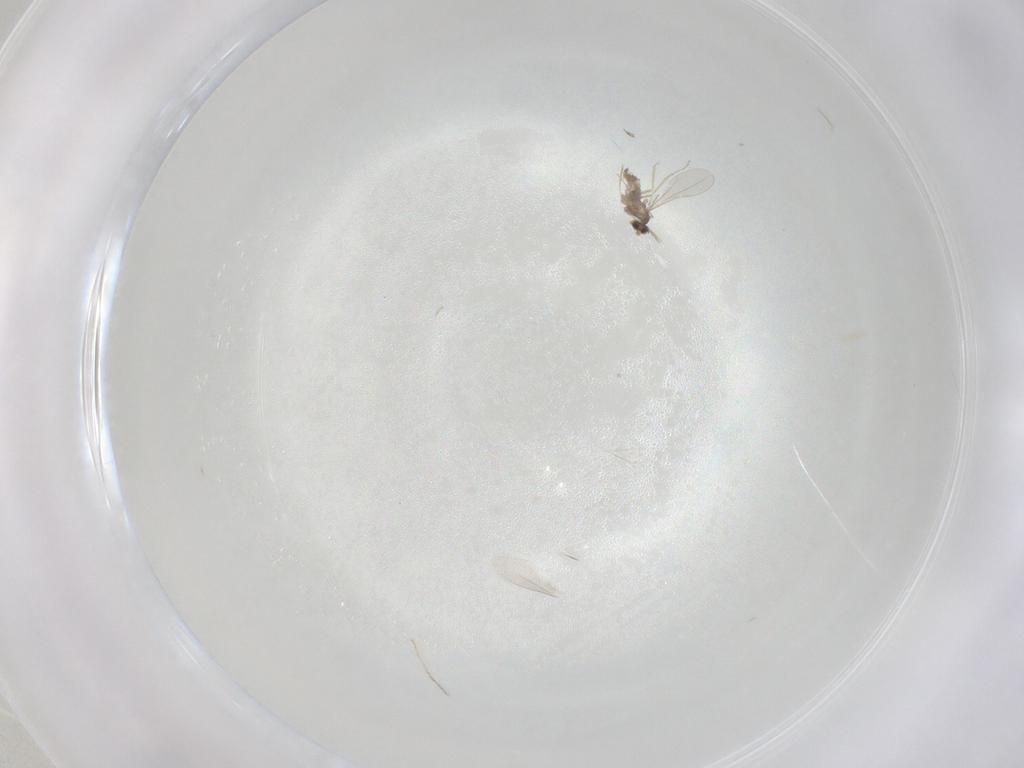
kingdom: Animalia
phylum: Arthropoda
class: Insecta
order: Diptera
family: Cecidomyiidae
